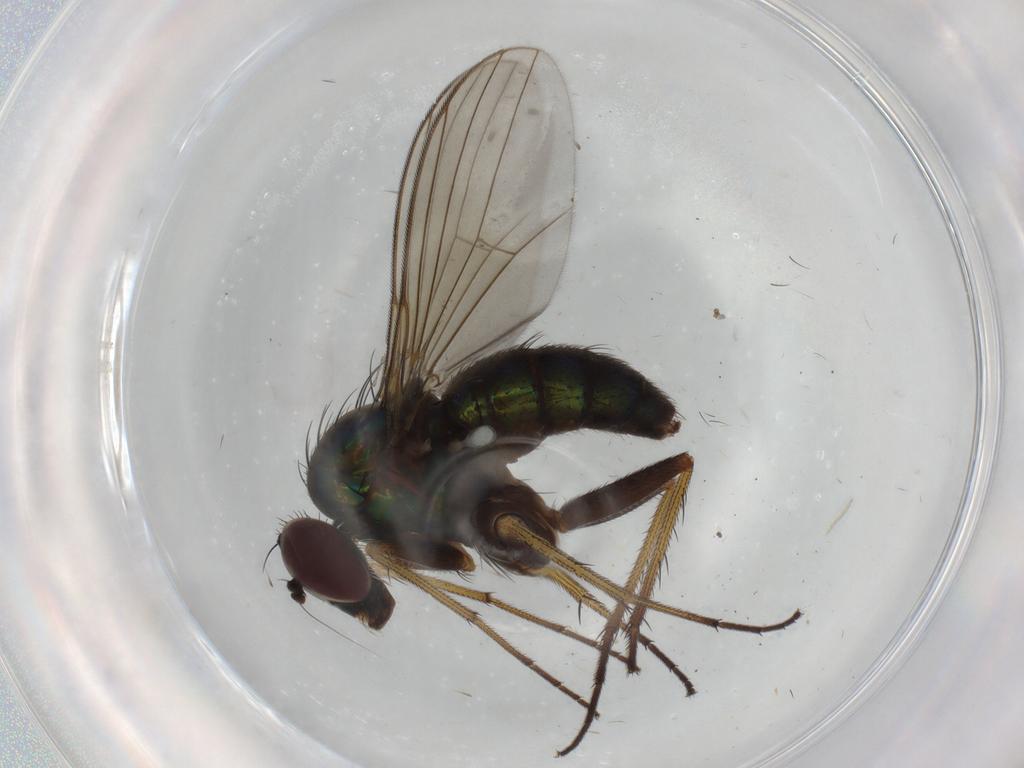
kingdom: Animalia
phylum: Arthropoda
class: Insecta
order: Diptera
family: Dolichopodidae
